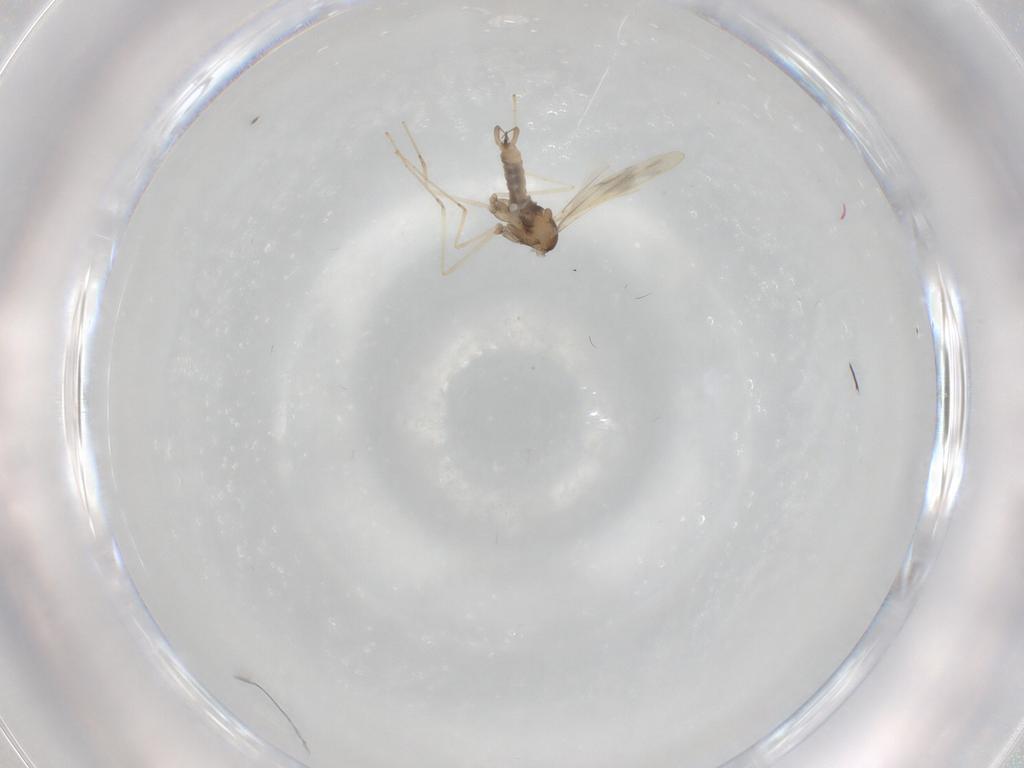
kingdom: Animalia
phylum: Arthropoda
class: Insecta
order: Diptera
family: Cecidomyiidae
